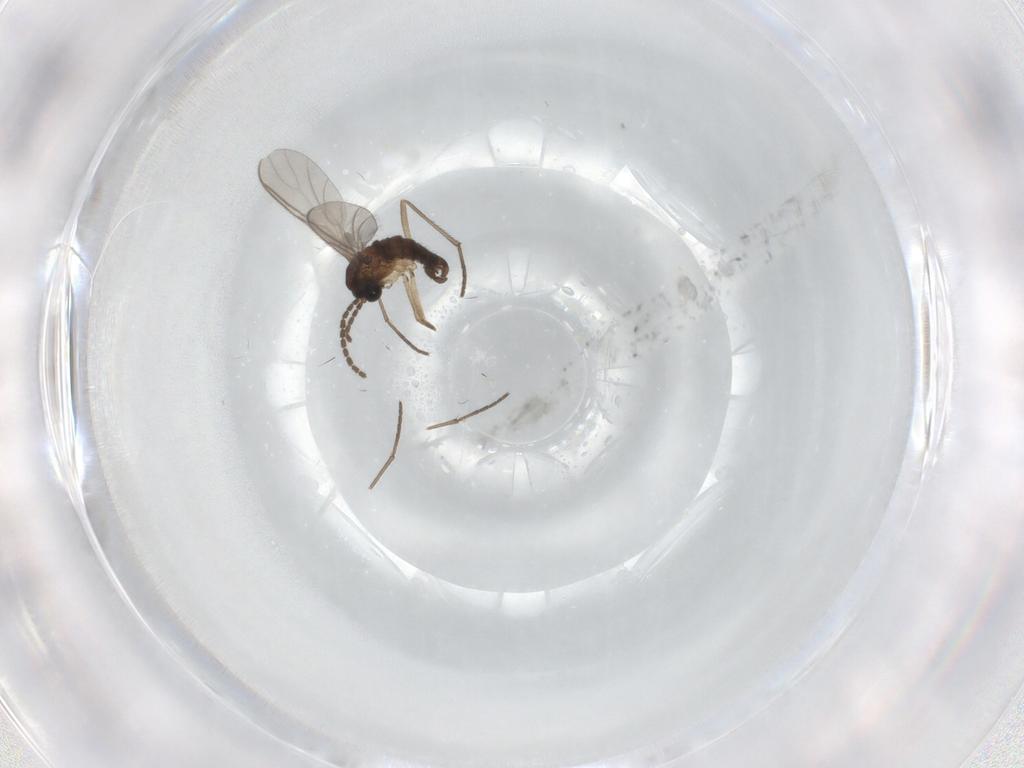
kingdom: Animalia
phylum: Arthropoda
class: Insecta
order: Diptera
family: Sciaridae
